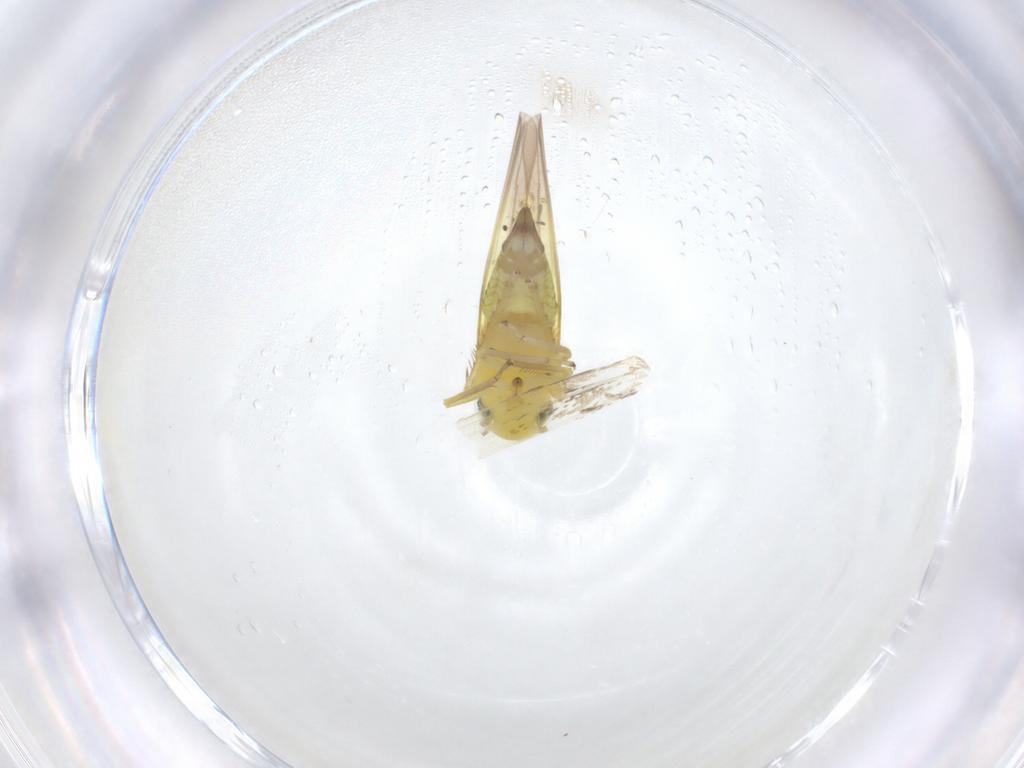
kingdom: Animalia
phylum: Arthropoda
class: Insecta
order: Hemiptera
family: Cicadellidae
